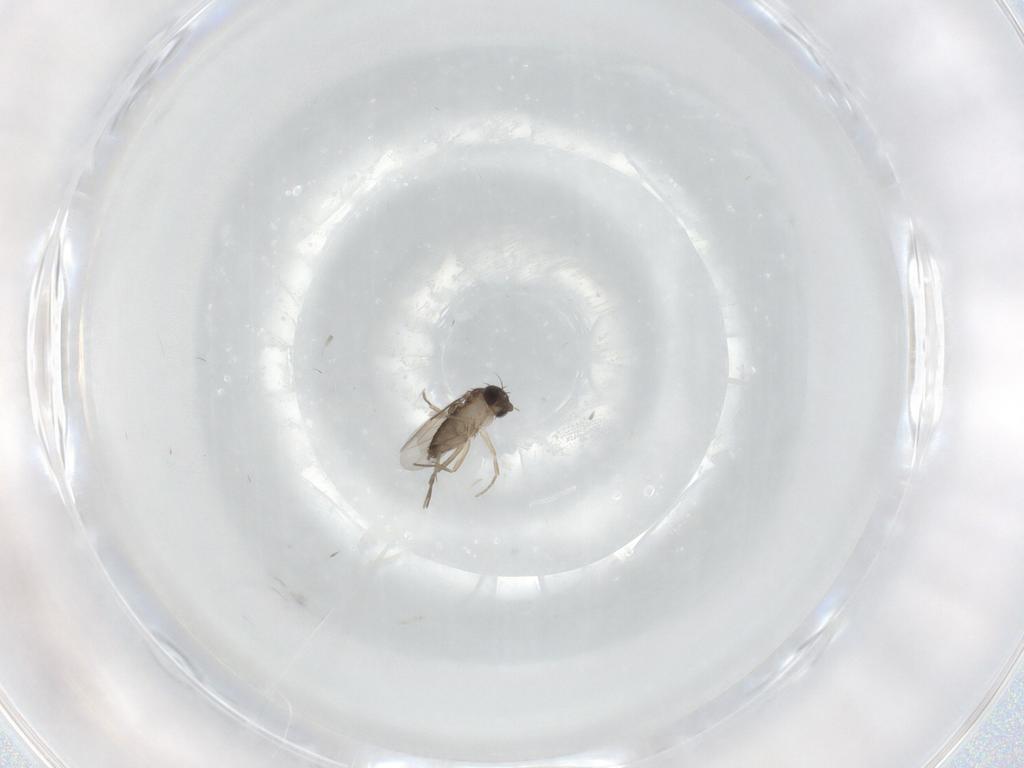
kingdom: Animalia
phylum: Arthropoda
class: Insecta
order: Diptera
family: Phoridae
